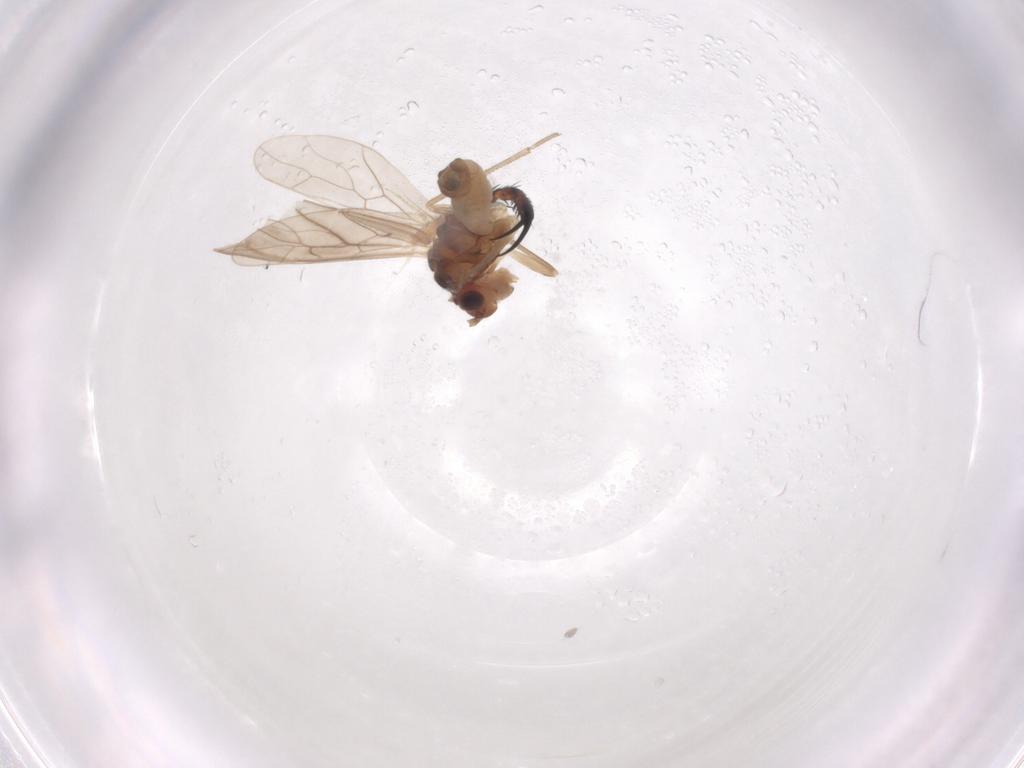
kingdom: Animalia
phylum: Arthropoda
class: Insecta
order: Psocodea
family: Philotarsidae
